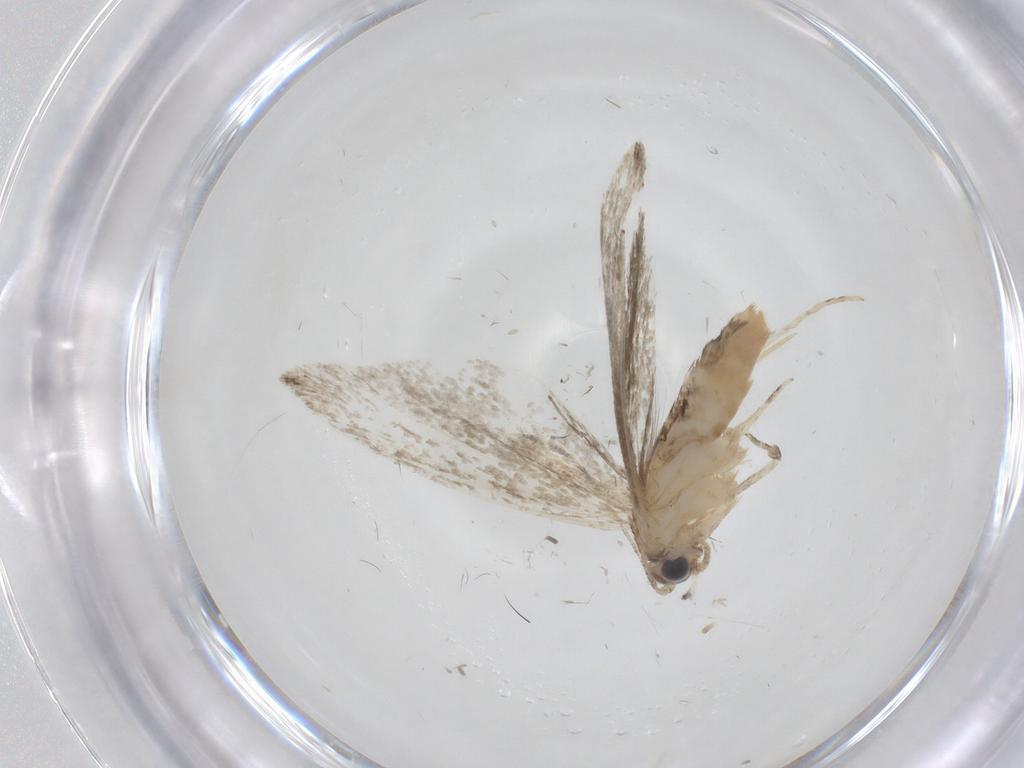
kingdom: Animalia
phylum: Arthropoda
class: Insecta
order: Lepidoptera
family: Tineidae
